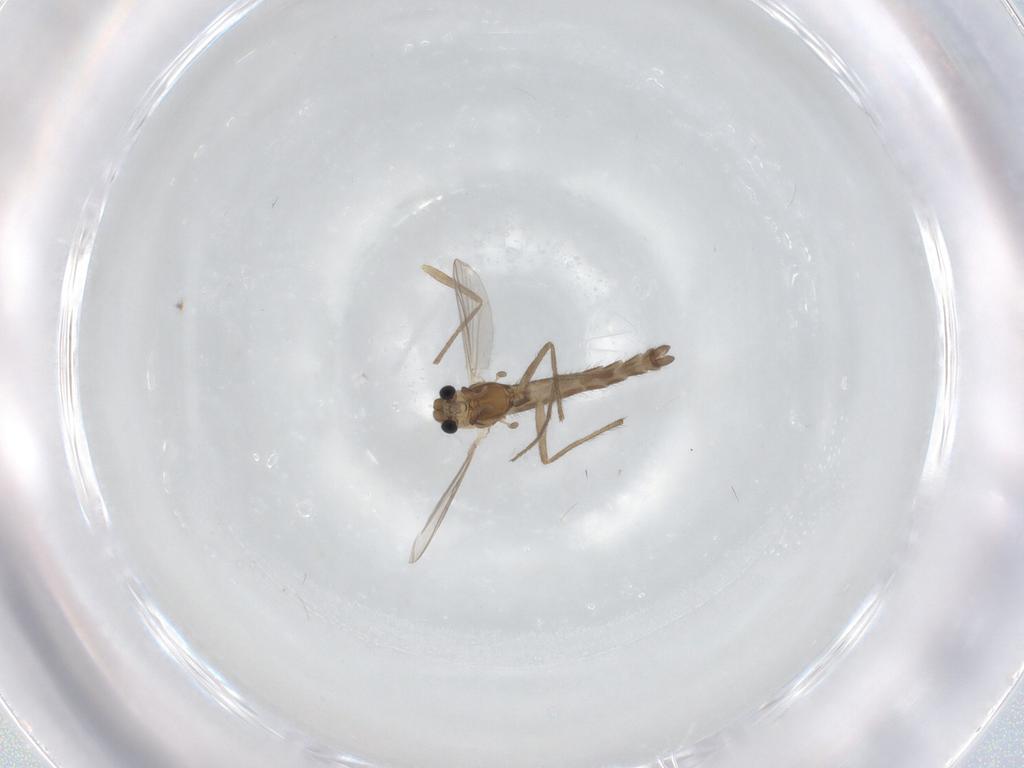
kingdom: Animalia
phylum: Arthropoda
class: Insecta
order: Diptera
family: Chironomidae
